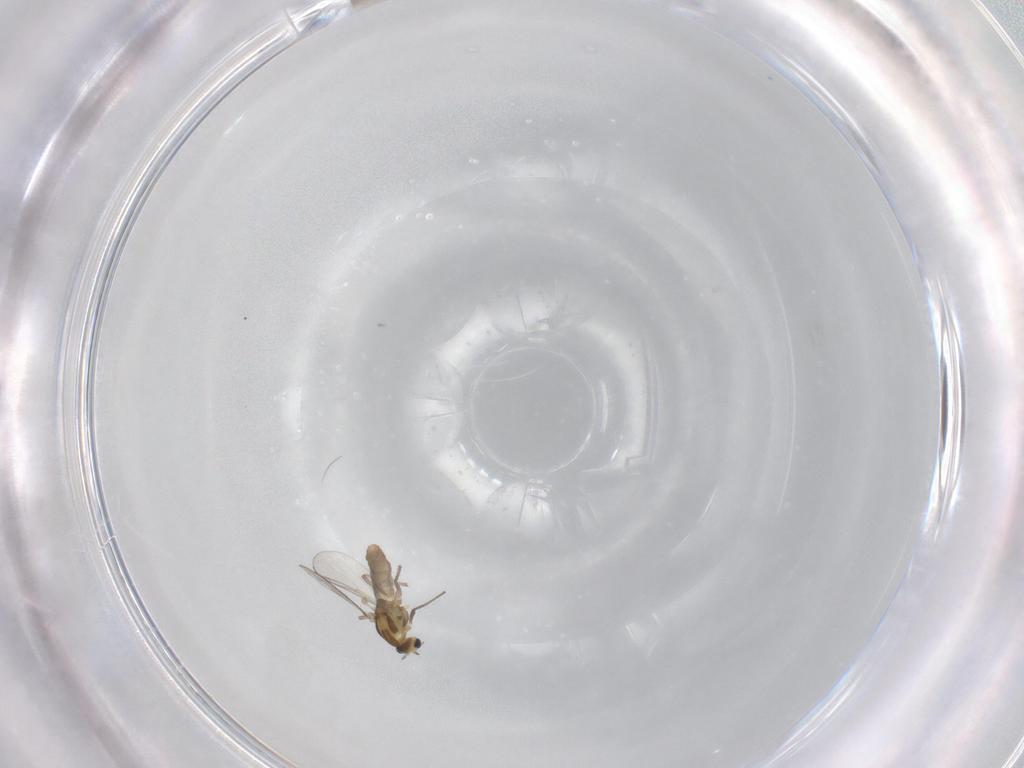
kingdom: Animalia
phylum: Arthropoda
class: Insecta
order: Diptera
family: Chironomidae
